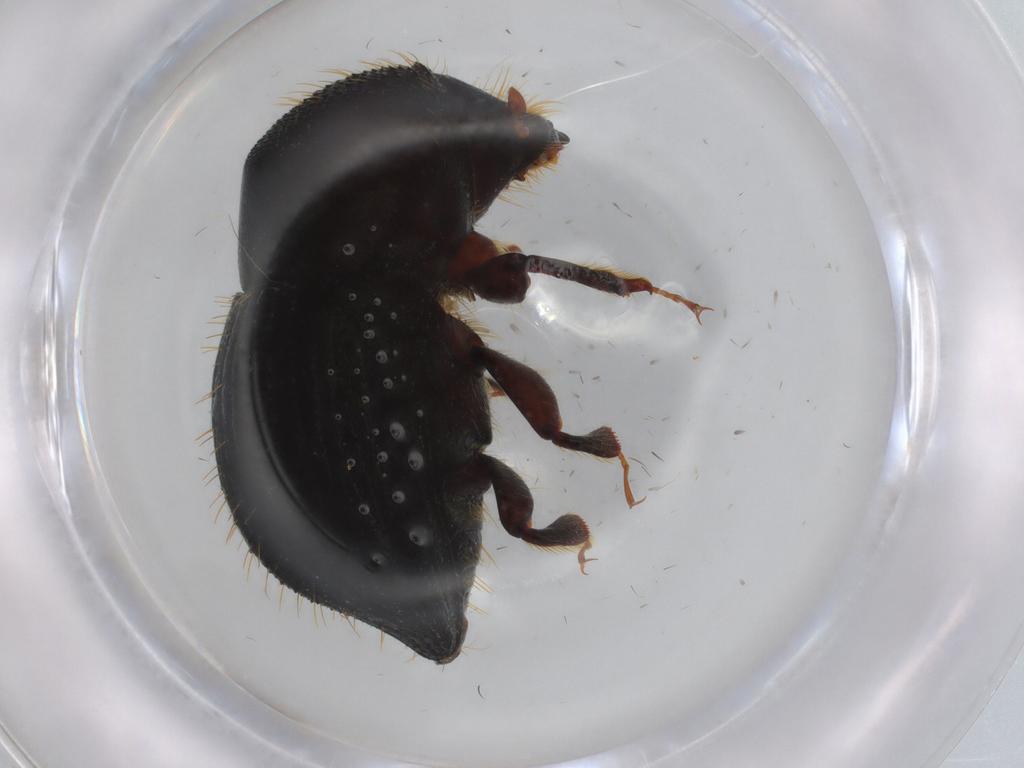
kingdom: Animalia
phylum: Arthropoda
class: Insecta
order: Coleoptera
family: Curculionidae
